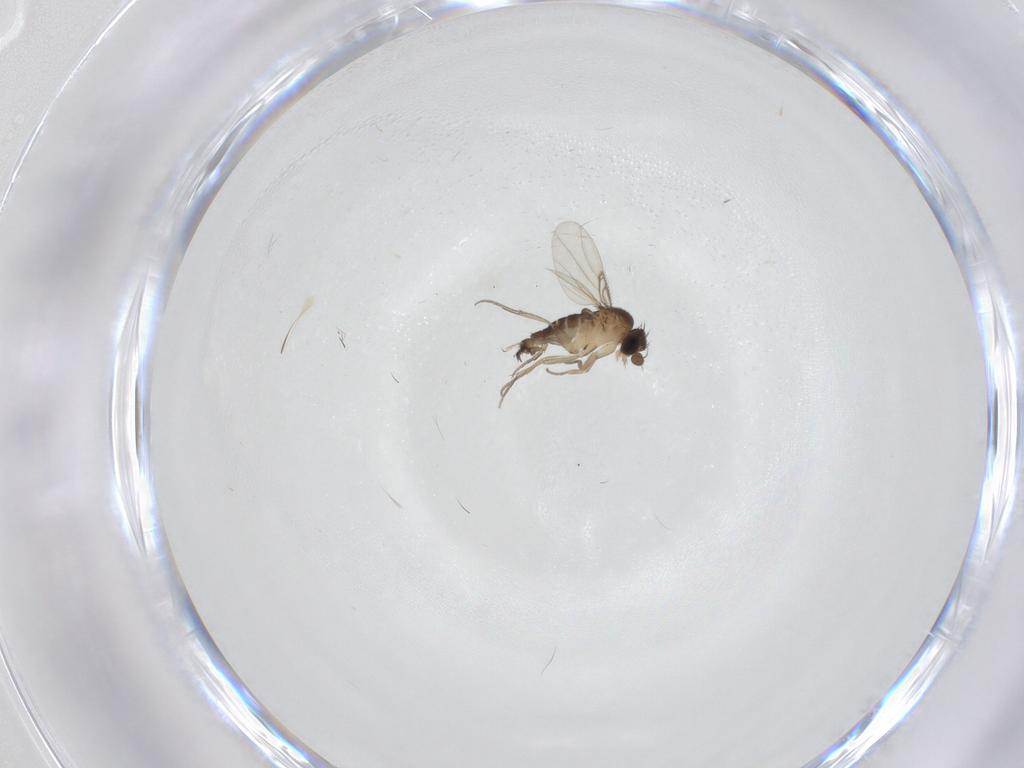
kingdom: Animalia
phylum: Arthropoda
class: Insecta
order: Diptera
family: Phoridae
